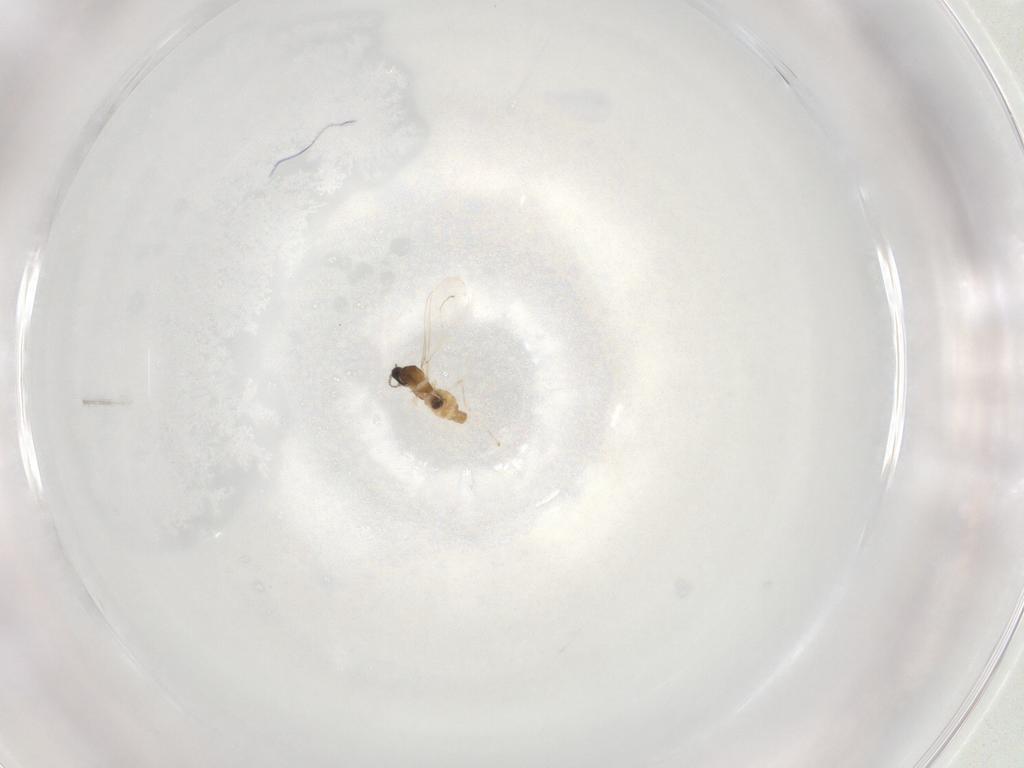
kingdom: Animalia
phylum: Arthropoda
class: Insecta
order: Diptera
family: Cecidomyiidae
